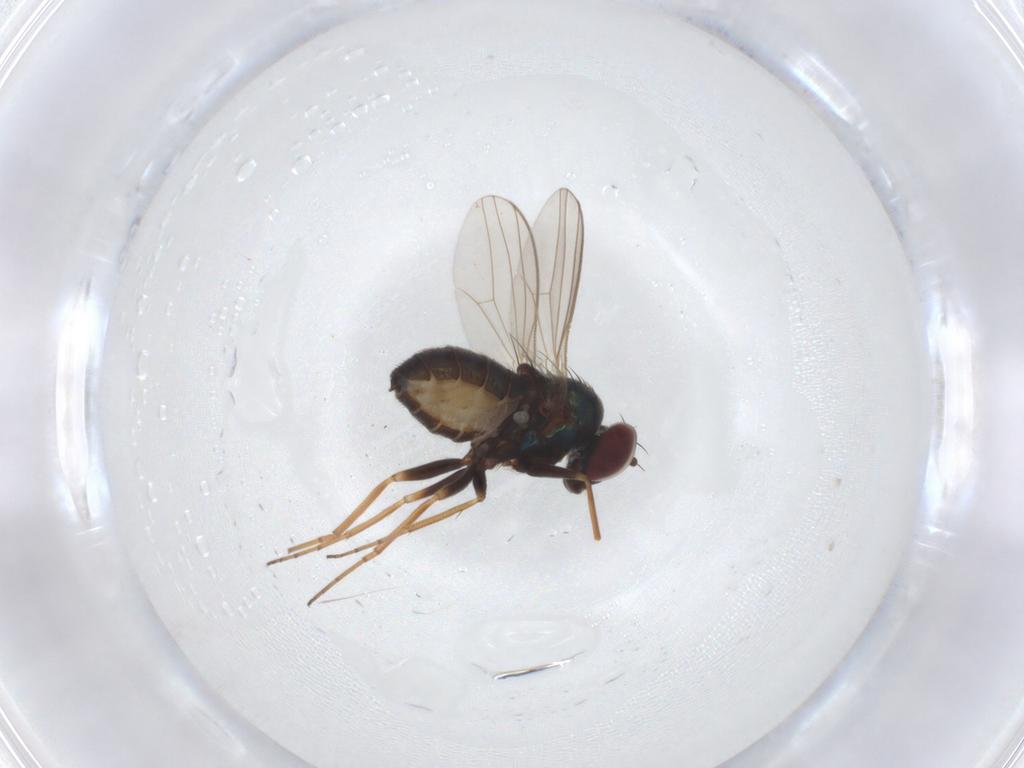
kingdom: Animalia
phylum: Arthropoda
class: Insecta
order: Diptera
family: Dolichopodidae
